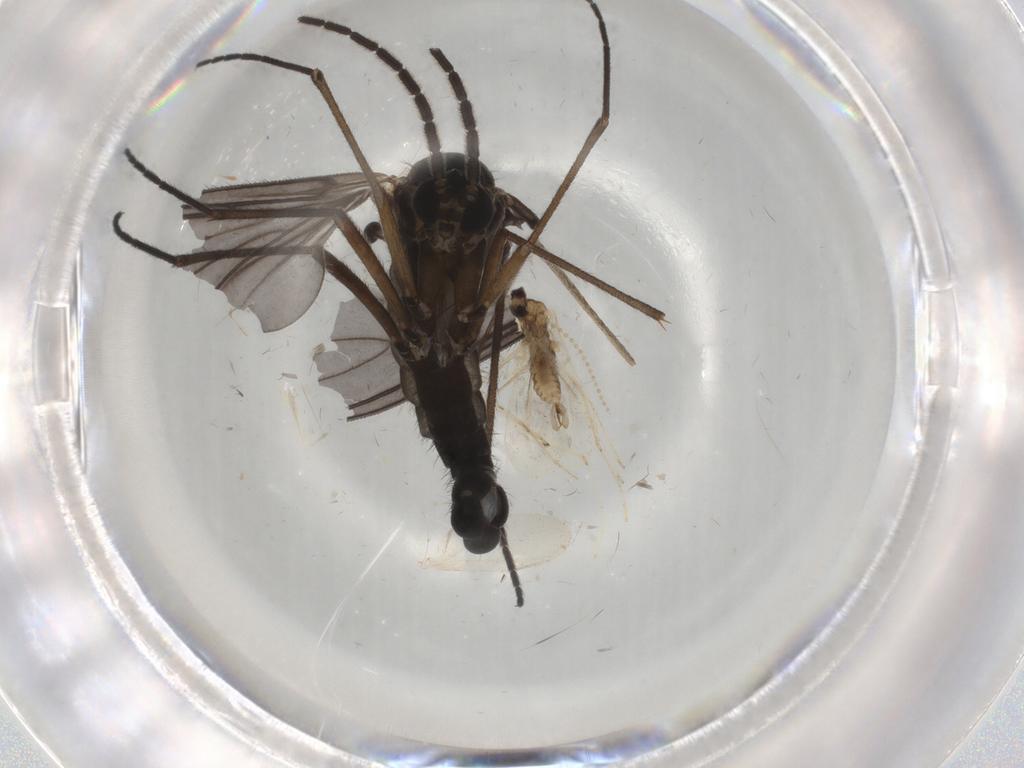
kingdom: Animalia
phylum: Arthropoda
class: Insecta
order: Diptera
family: Sciaridae
